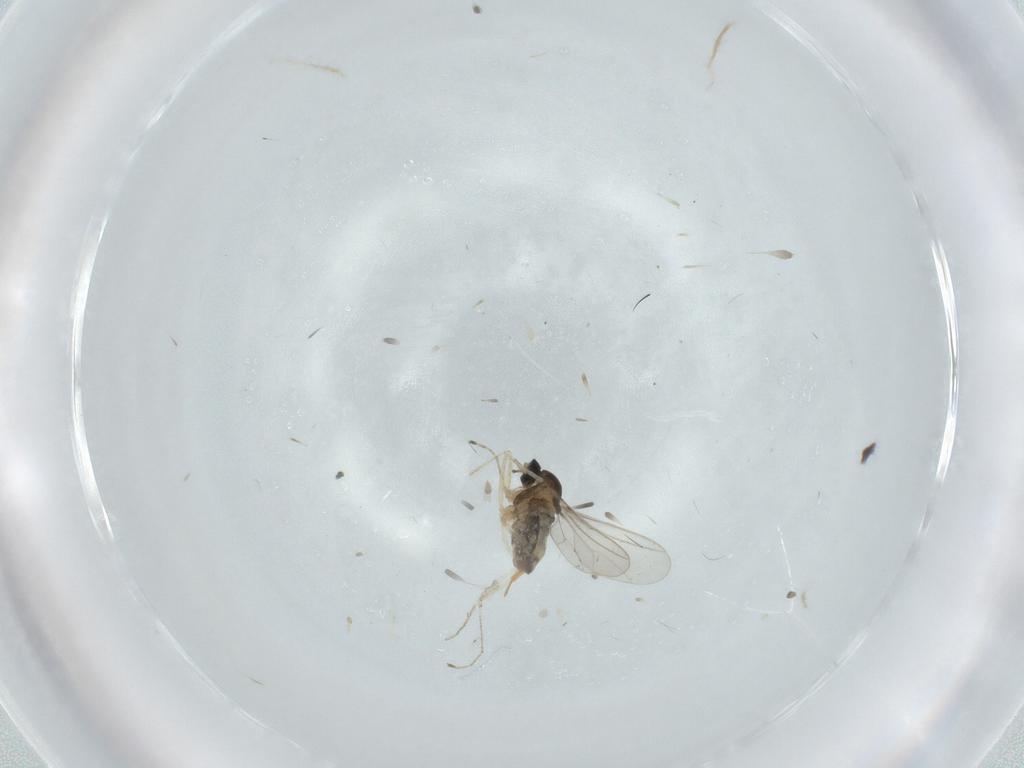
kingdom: Animalia
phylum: Arthropoda
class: Insecta
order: Diptera
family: Cecidomyiidae
